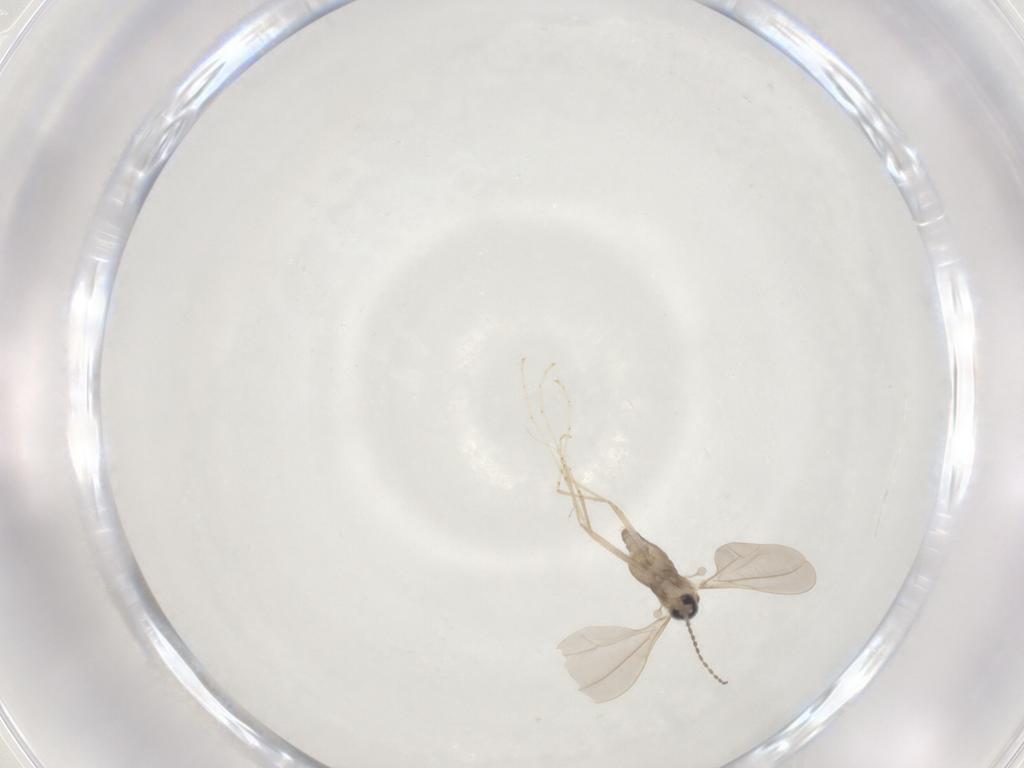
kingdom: Animalia
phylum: Arthropoda
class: Insecta
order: Diptera
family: Cecidomyiidae
